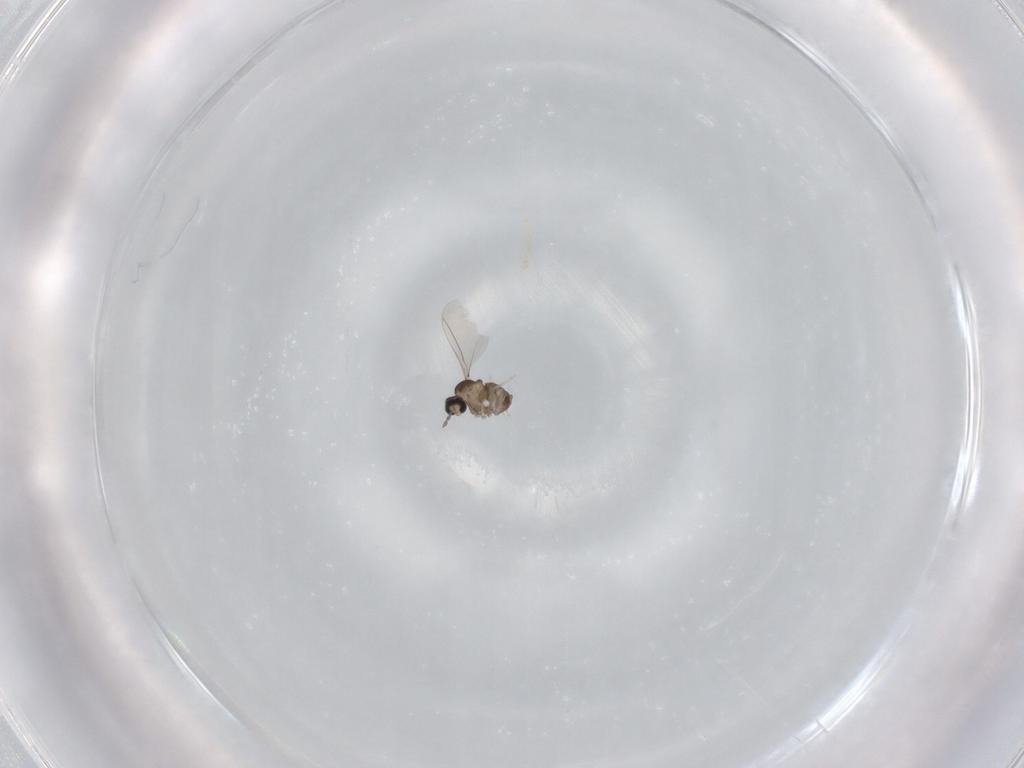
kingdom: Animalia
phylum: Arthropoda
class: Insecta
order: Diptera
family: Cecidomyiidae
